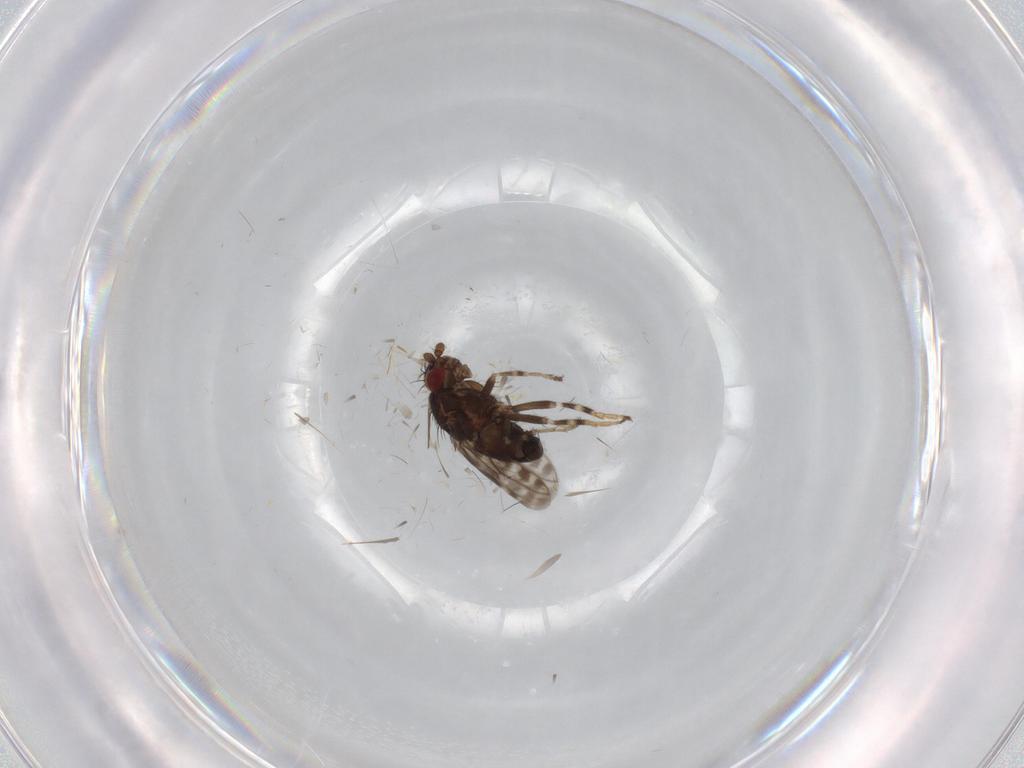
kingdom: Animalia
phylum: Arthropoda
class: Insecta
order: Diptera
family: Sphaeroceridae
